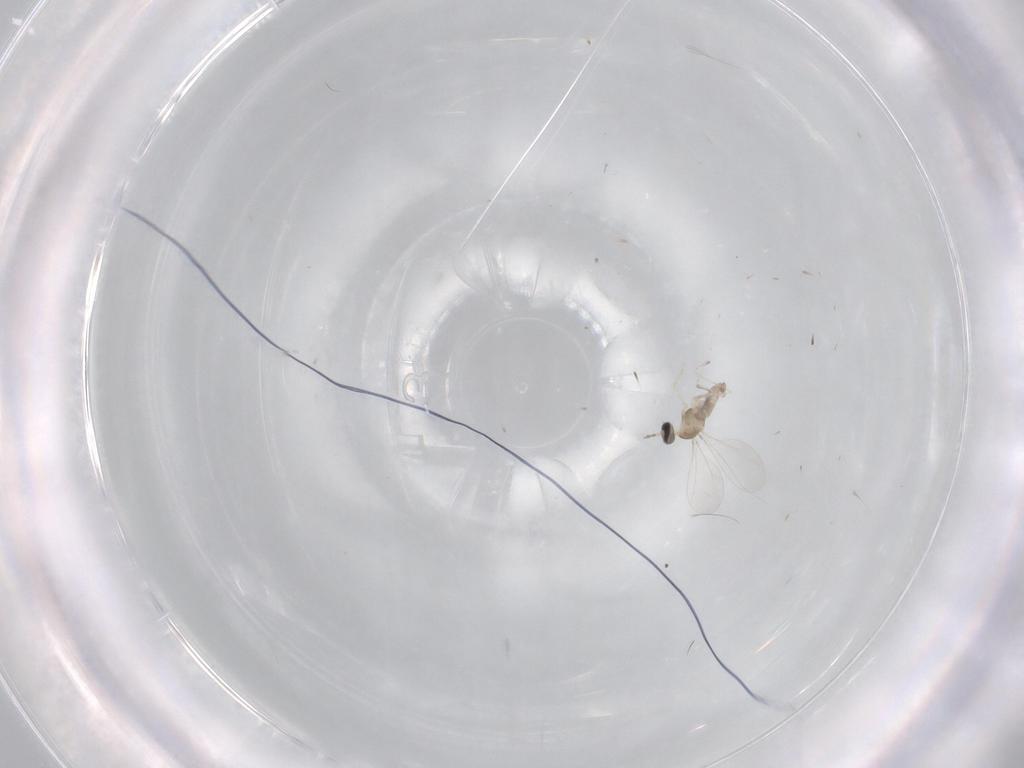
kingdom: Animalia
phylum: Arthropoda
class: Insecta
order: Diptera
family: Cecidomyiidae
